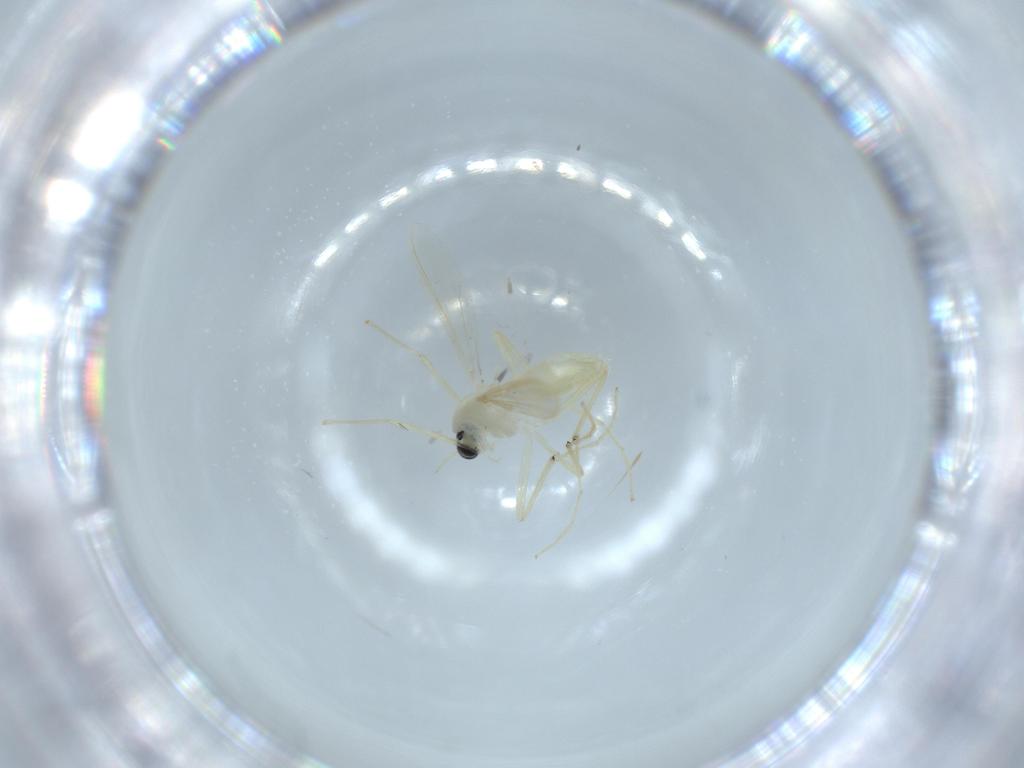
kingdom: Animalia
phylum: Arthropoda
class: Insecta
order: Diptera
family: Chironomidae
